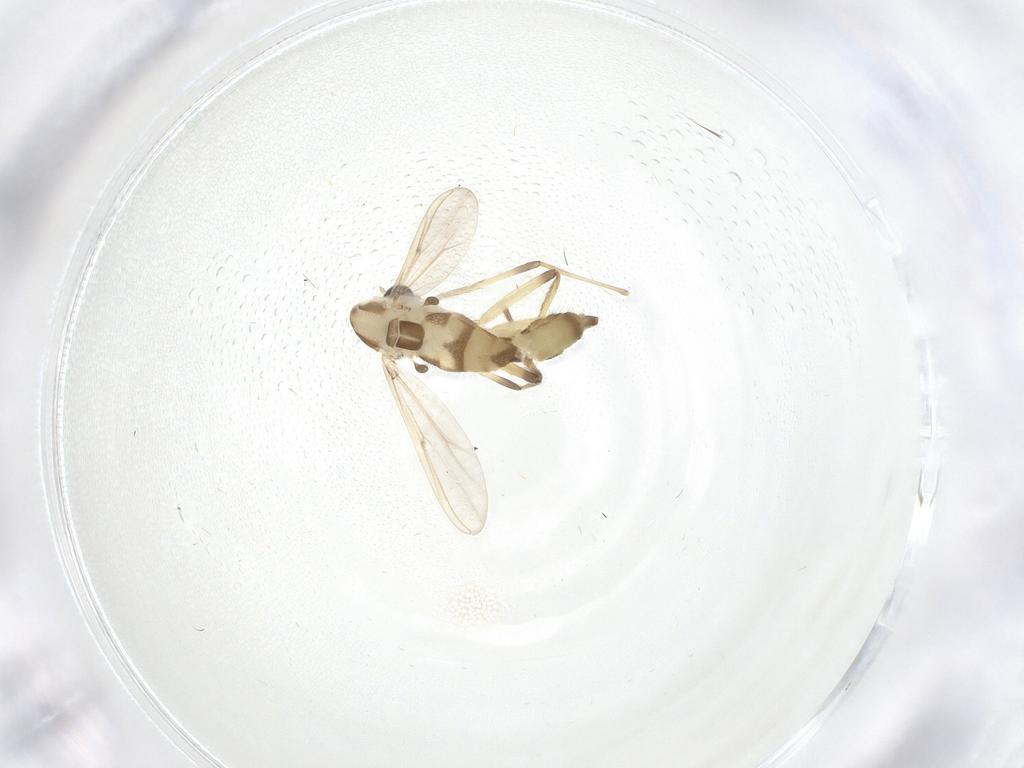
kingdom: Animalia
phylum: Arthropoda
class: Insecta
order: Diptera
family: Chironomidae
